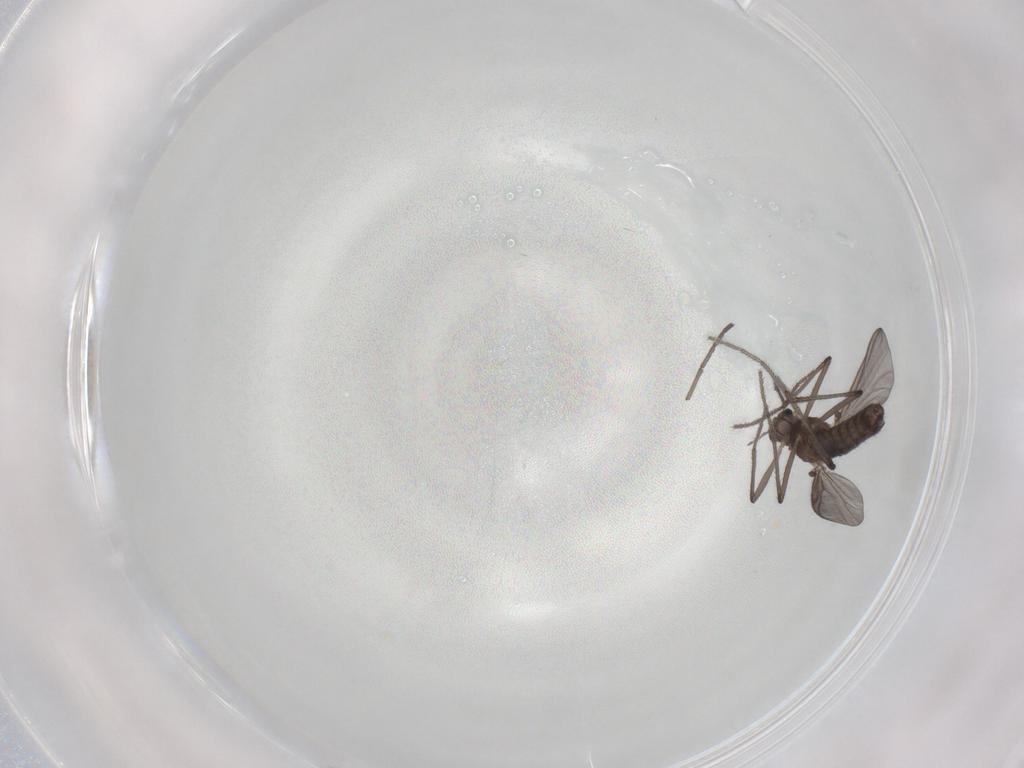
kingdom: Animalia
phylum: Arthropoda
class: Insecta
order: Diptera
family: Chironomidae
